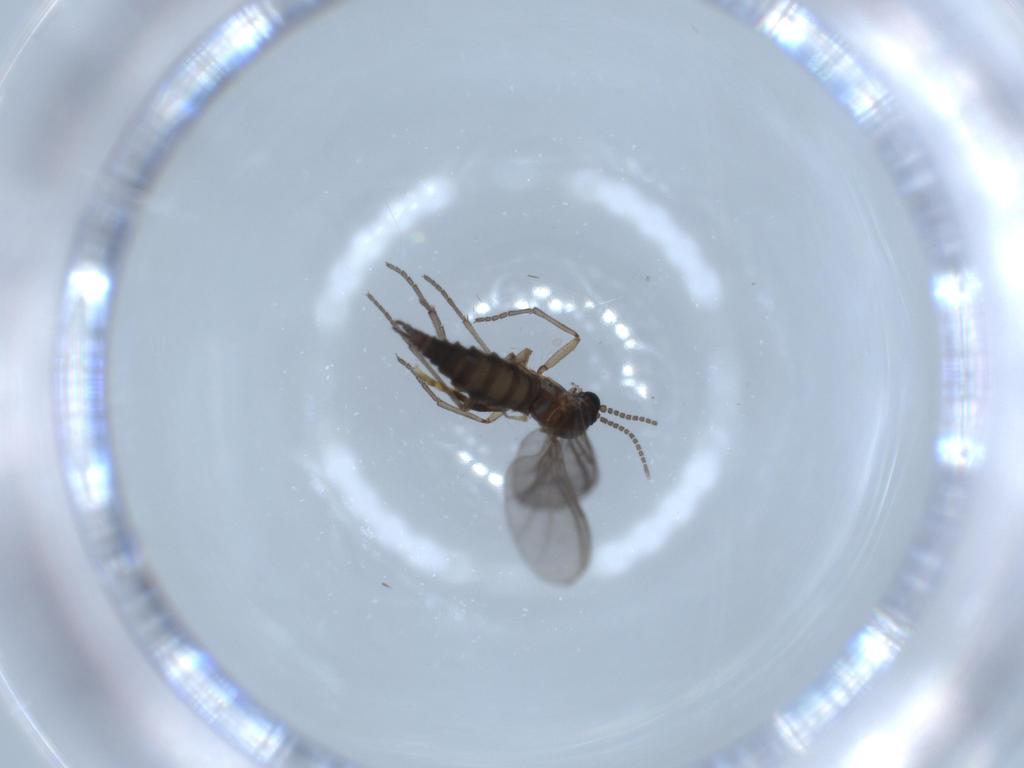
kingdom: Animalia
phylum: Arthropoda
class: Insecta
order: Diptera
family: Sciaridae
